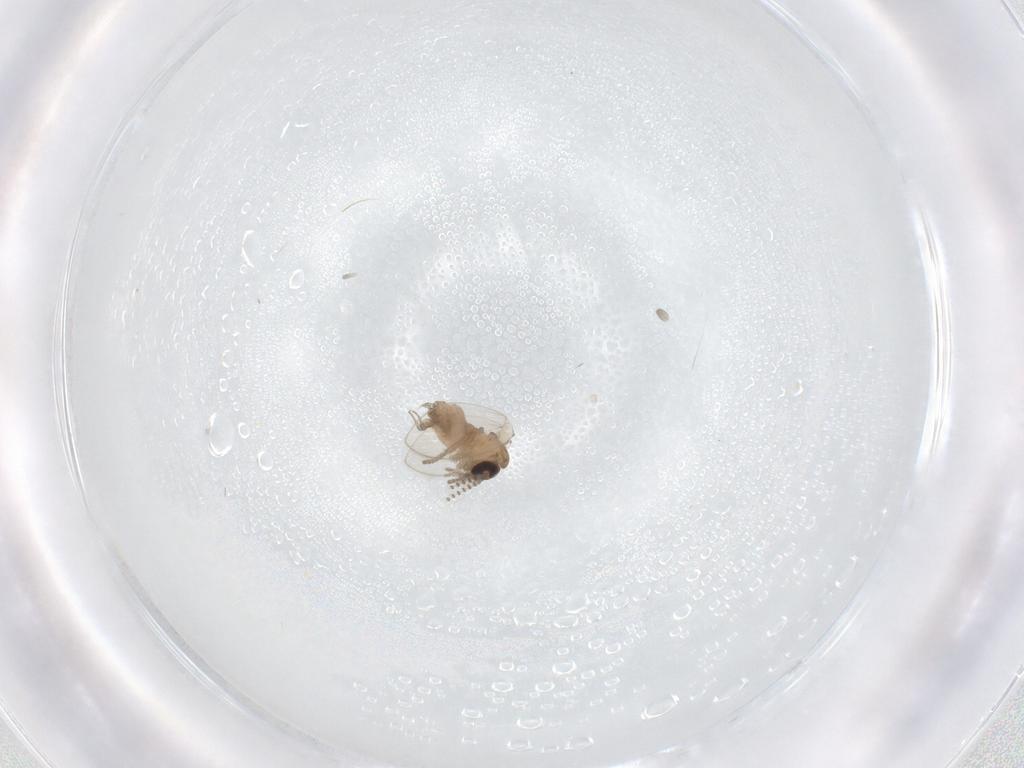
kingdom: Animalia
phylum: Arthropoda
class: Insecta
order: Diptera
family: Psychodidae
